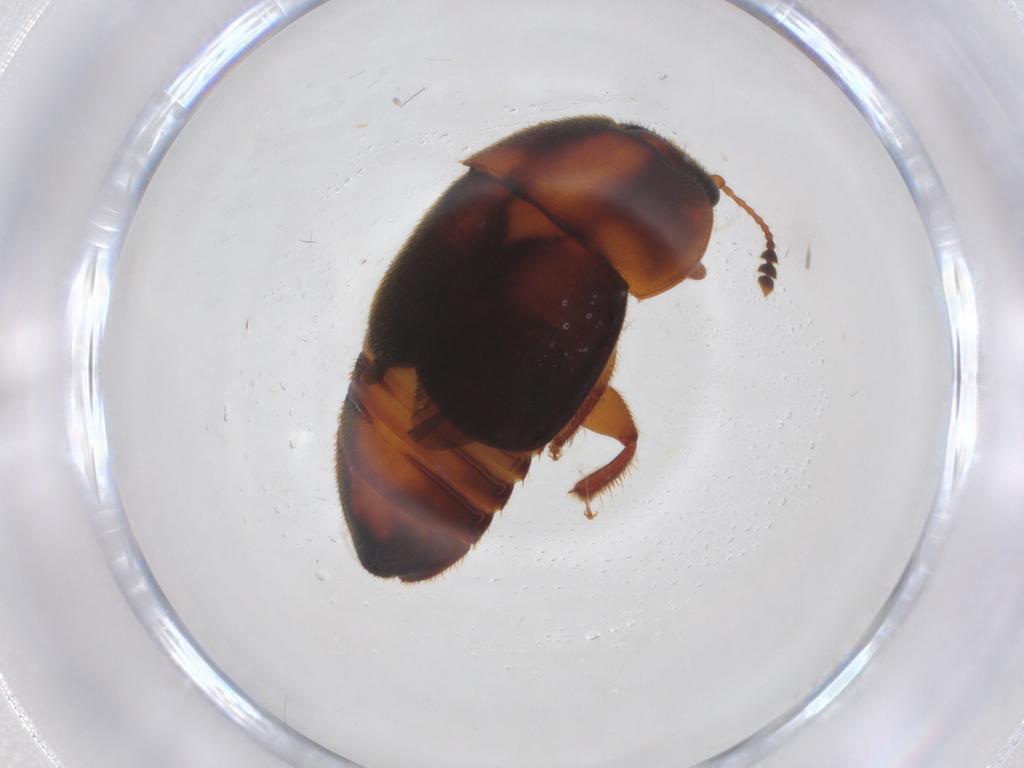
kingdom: Animalia
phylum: Arthropoda
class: Insecta
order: Coleoptera
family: Nitidulidae
